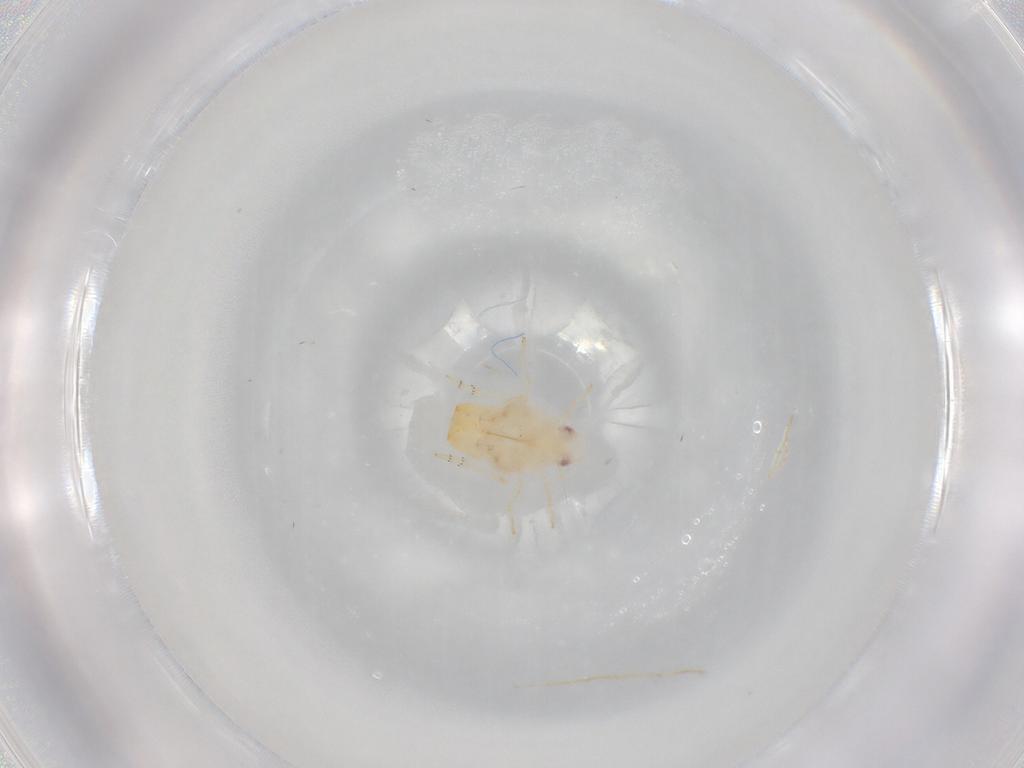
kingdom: Animalia
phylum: Arthropoda
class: Insecta
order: Hemiptera
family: Flatidae
